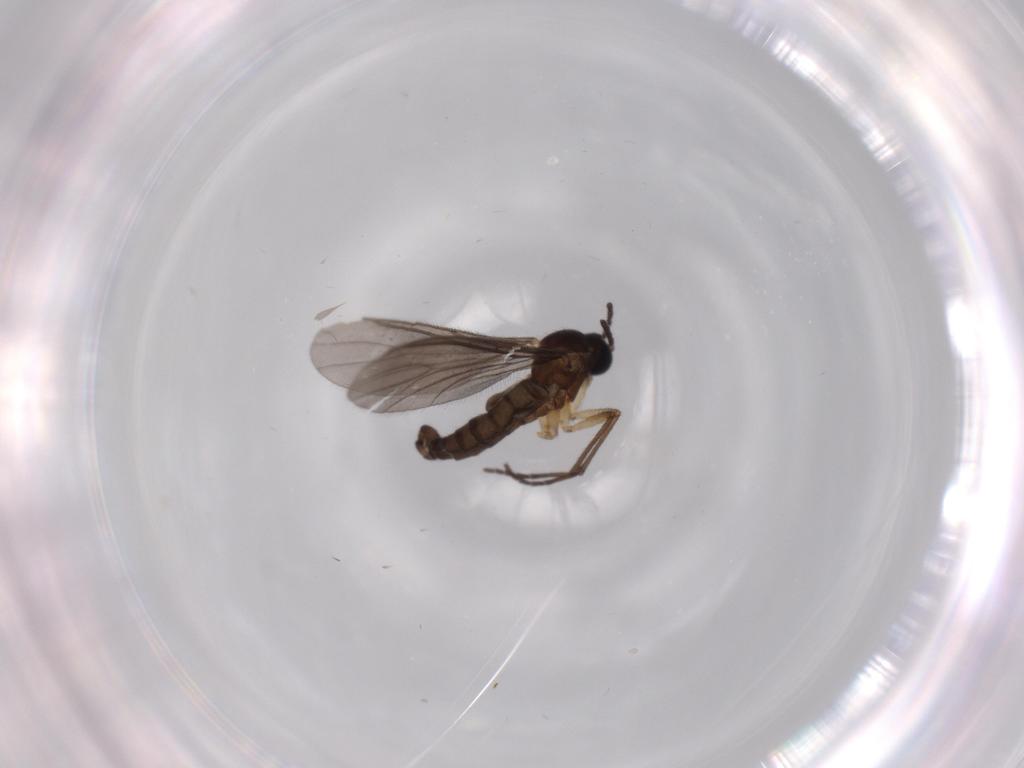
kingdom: Animalia
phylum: Arthropoda
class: Insecta
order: Diptera
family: Sciaridae
